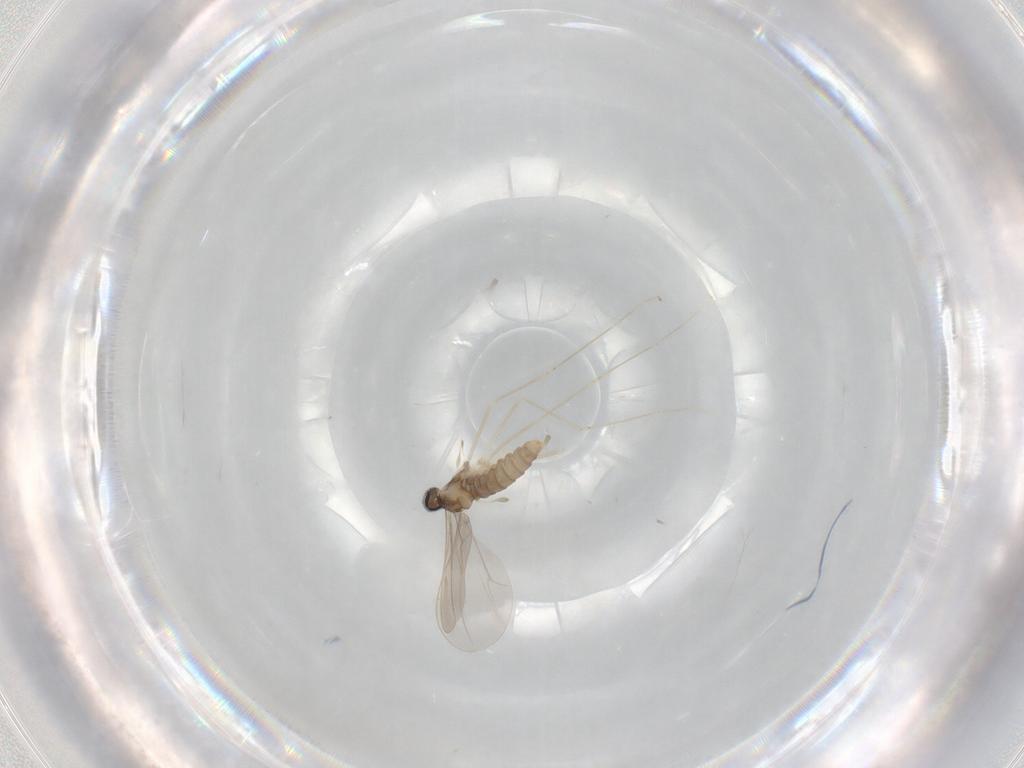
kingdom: Animalia
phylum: Arthropoda
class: Insecta
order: Diptera
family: Cecidomyiidae
